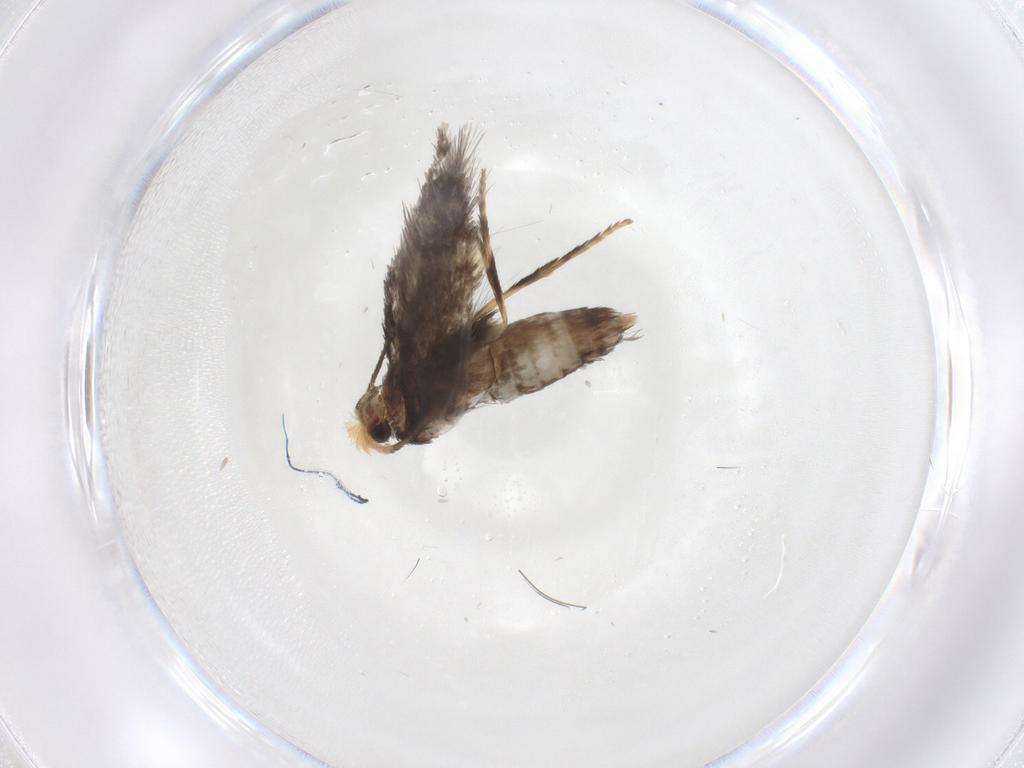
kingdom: Animalia
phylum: Arthropoda
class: Insecta
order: Lepidoptera
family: Nepticulidae
